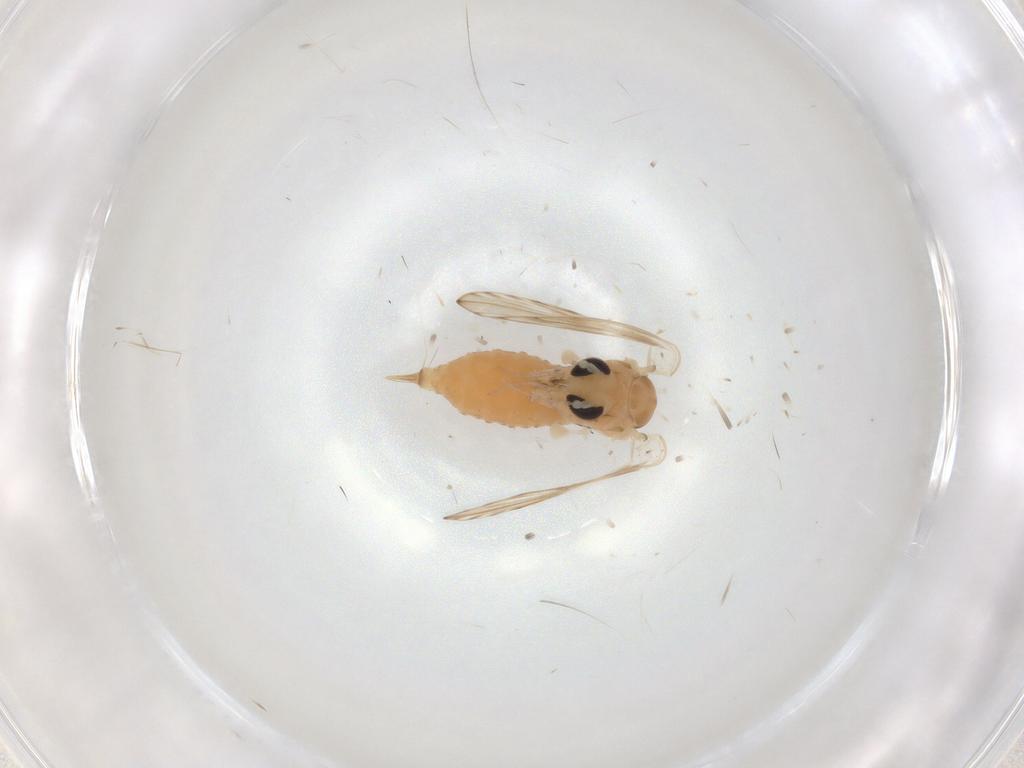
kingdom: Animalia
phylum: Arthropoda
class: Insecta
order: Diptera
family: Psychodidae
